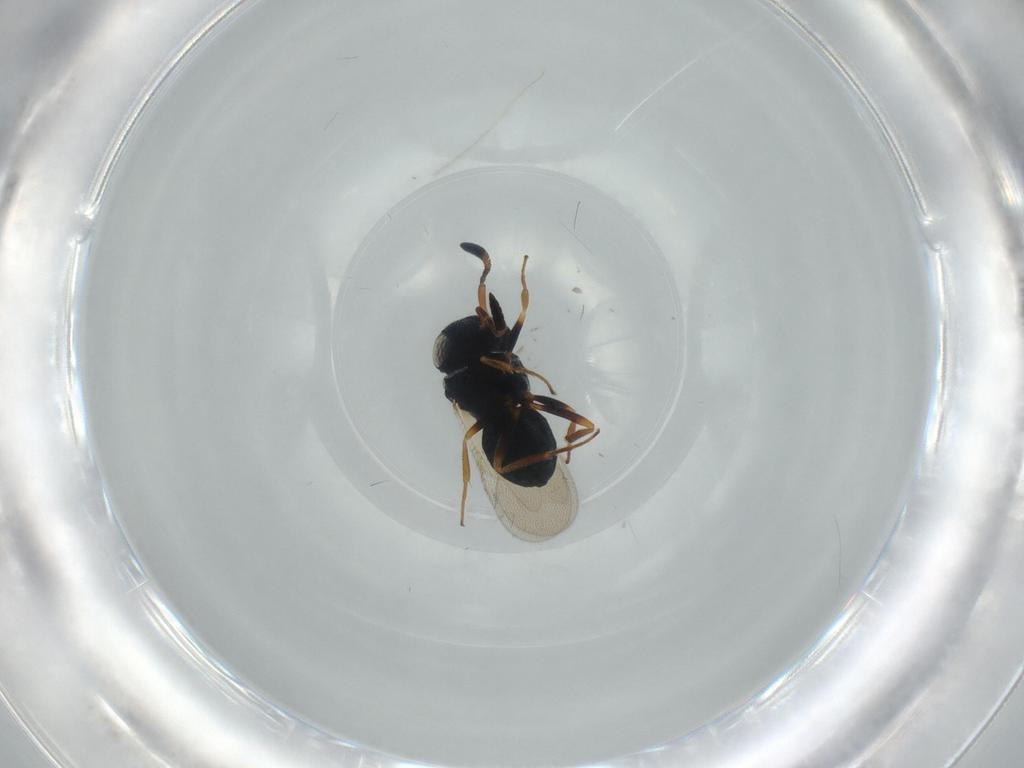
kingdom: Animalia
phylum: Arthropoda
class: Insecta
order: Hymenoptera
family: Scelionidae
